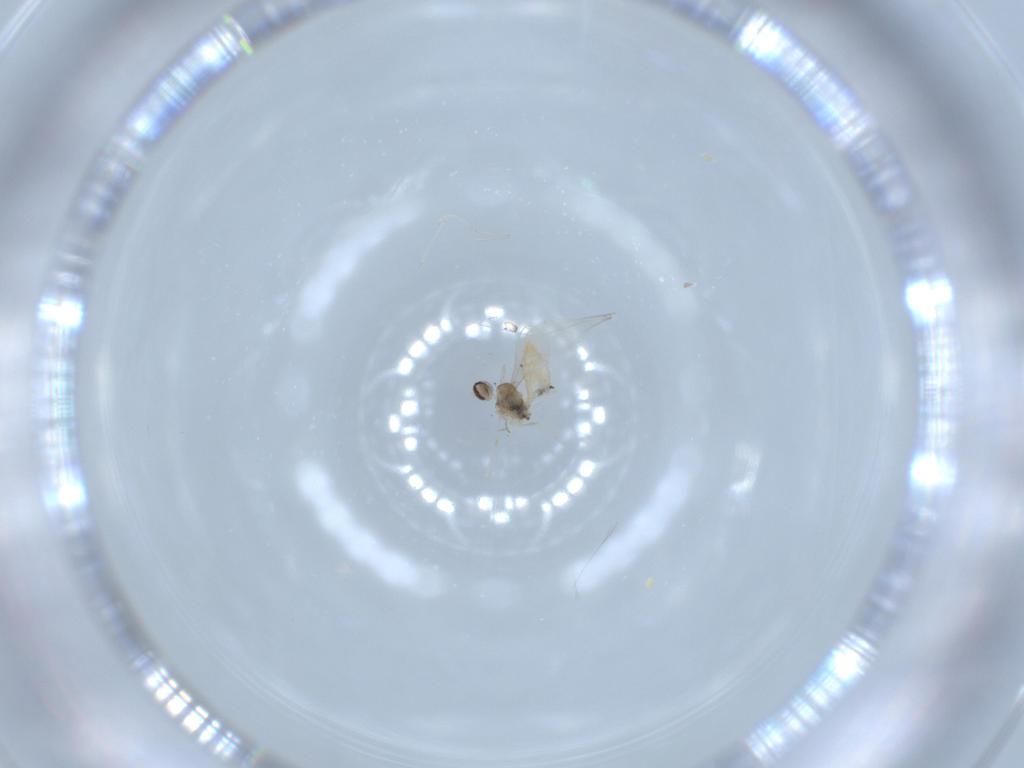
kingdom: Animalia
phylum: Arthropoda
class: Insecta
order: Diptera
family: Cecidomyiidae
